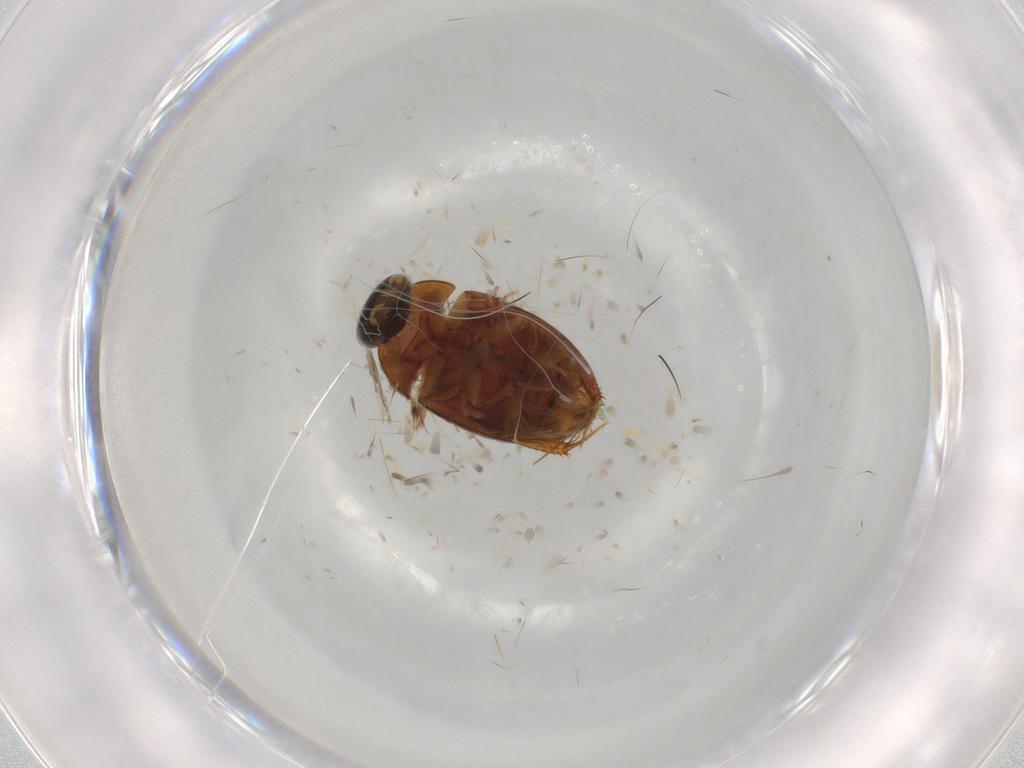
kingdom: Animalia
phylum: Arthropoda
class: Insecta
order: Coleoptera
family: Hydrophilidae
